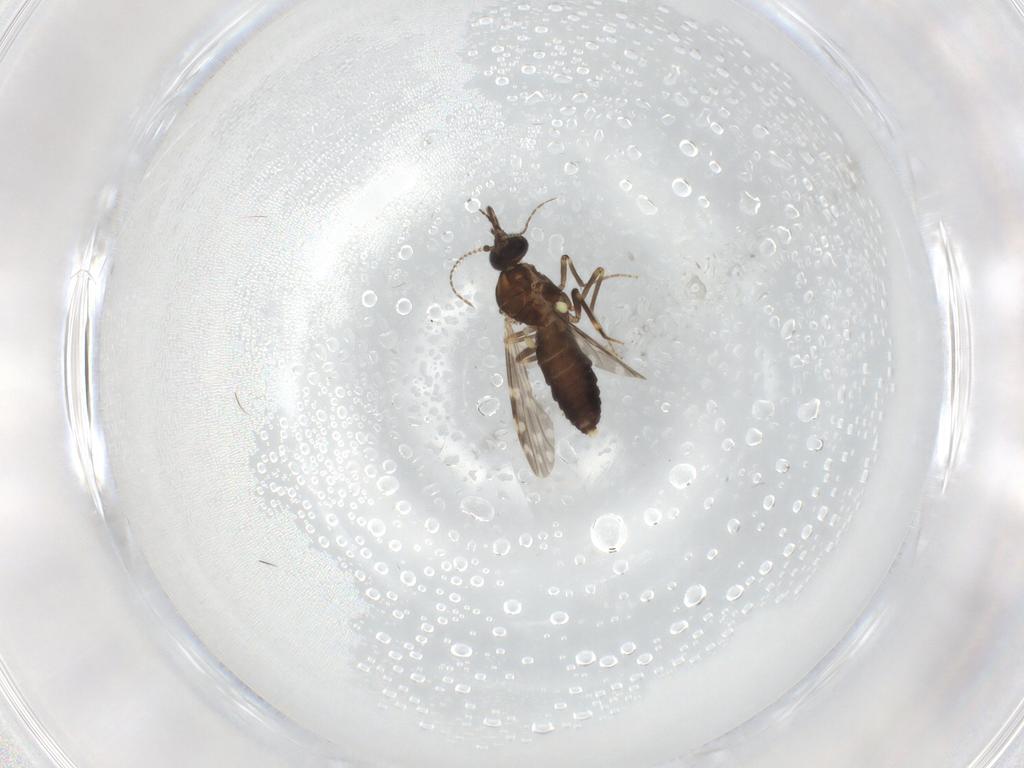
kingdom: Animalia
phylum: Arthropoda
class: Insecta
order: Diptera
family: Ceratopogonidae
